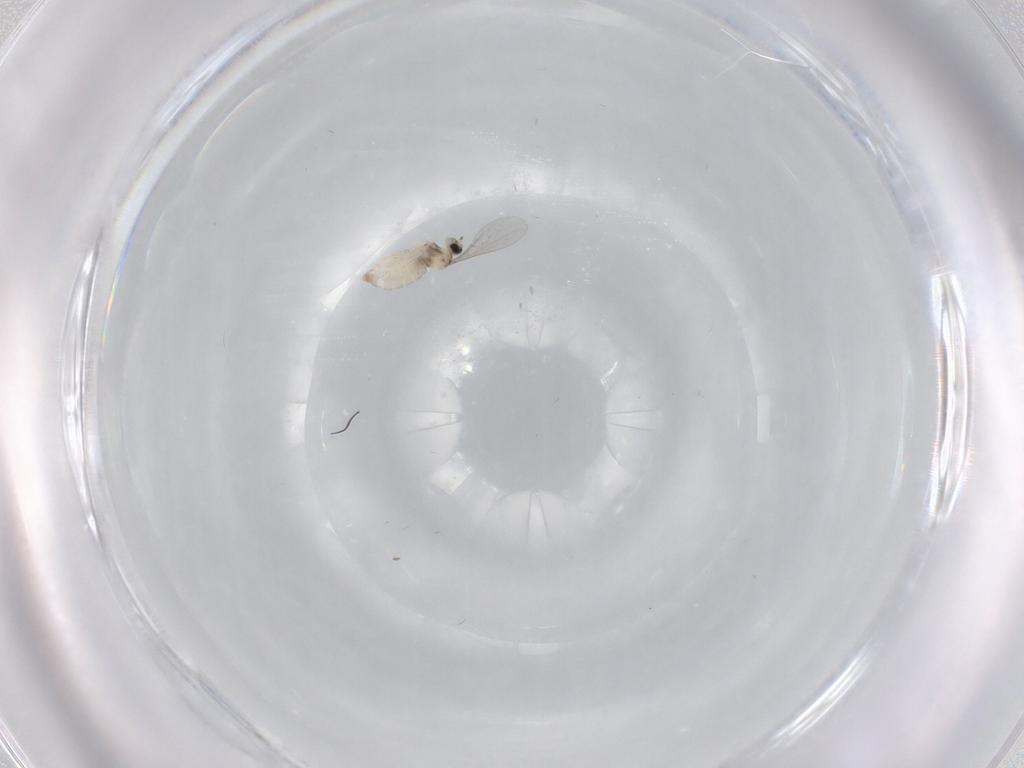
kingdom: Animalia
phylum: Arthropoda
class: Insecta
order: Diptera
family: Cecidomyiidae
